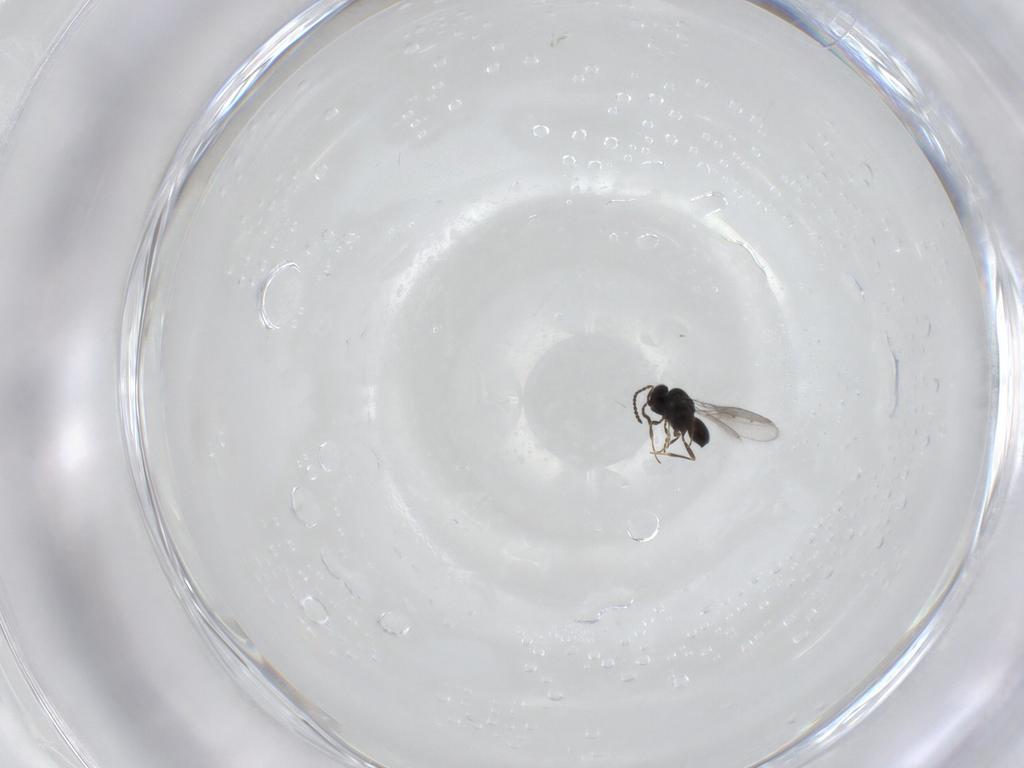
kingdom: Animalia
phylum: Arthropoda
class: Insecta
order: Hymenoptera
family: Scelionidae
